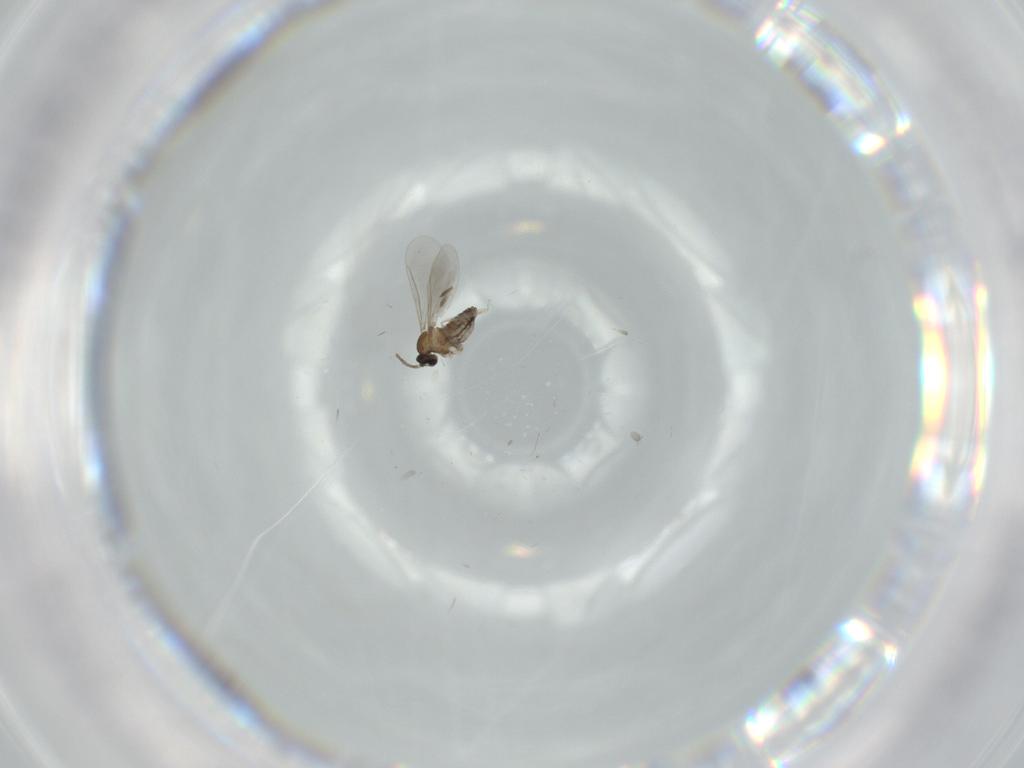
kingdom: Animalia
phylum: Arthropoda
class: Insecta
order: Diptera
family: Cecidomyiidae
